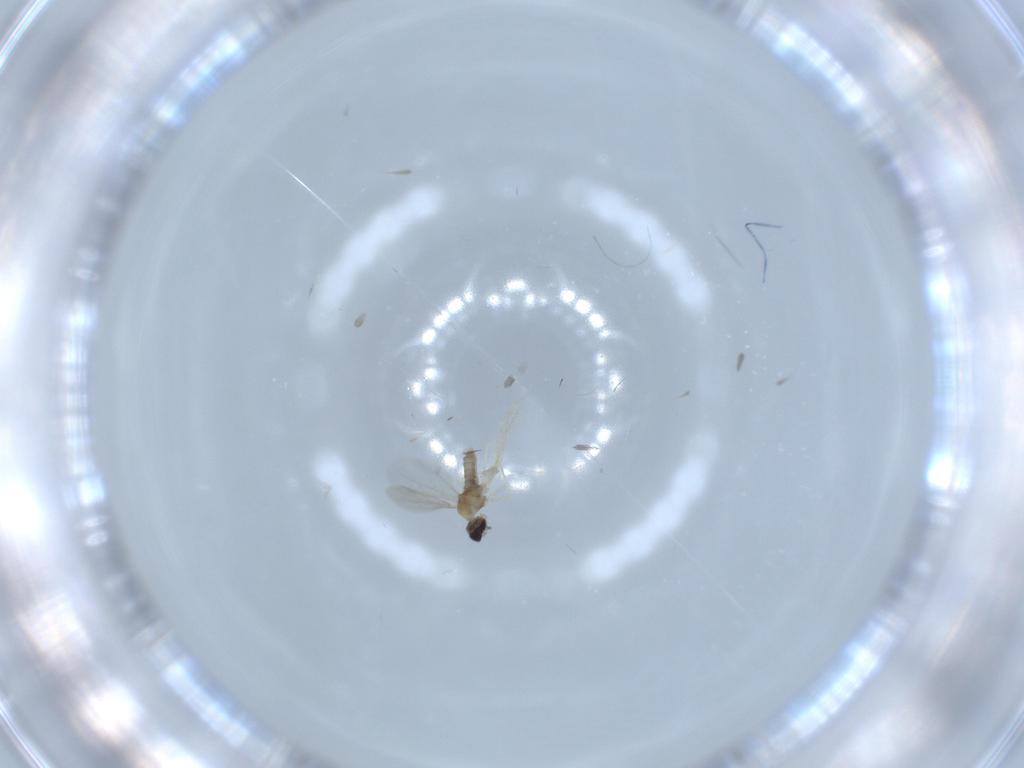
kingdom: Animalia
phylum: Arthropoda
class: Insecta
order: Diptera
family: Cecidomyiidae
